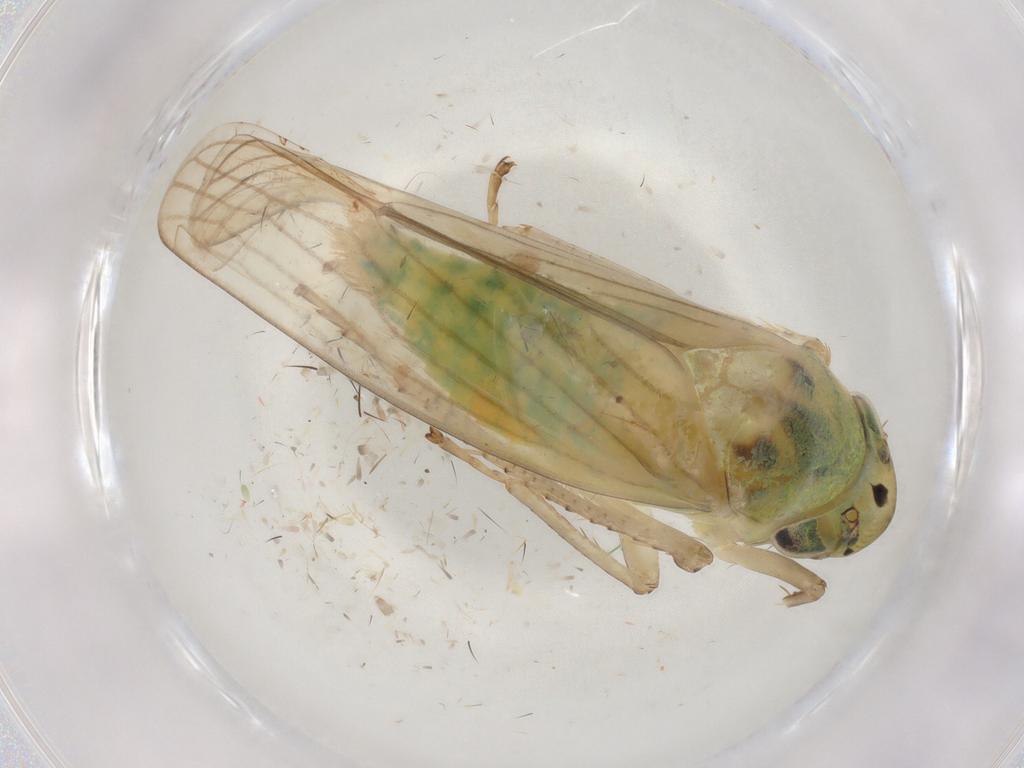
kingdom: Animalia
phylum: Arthropoda
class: Insecta
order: Hemiptera
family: Cicadellidae
